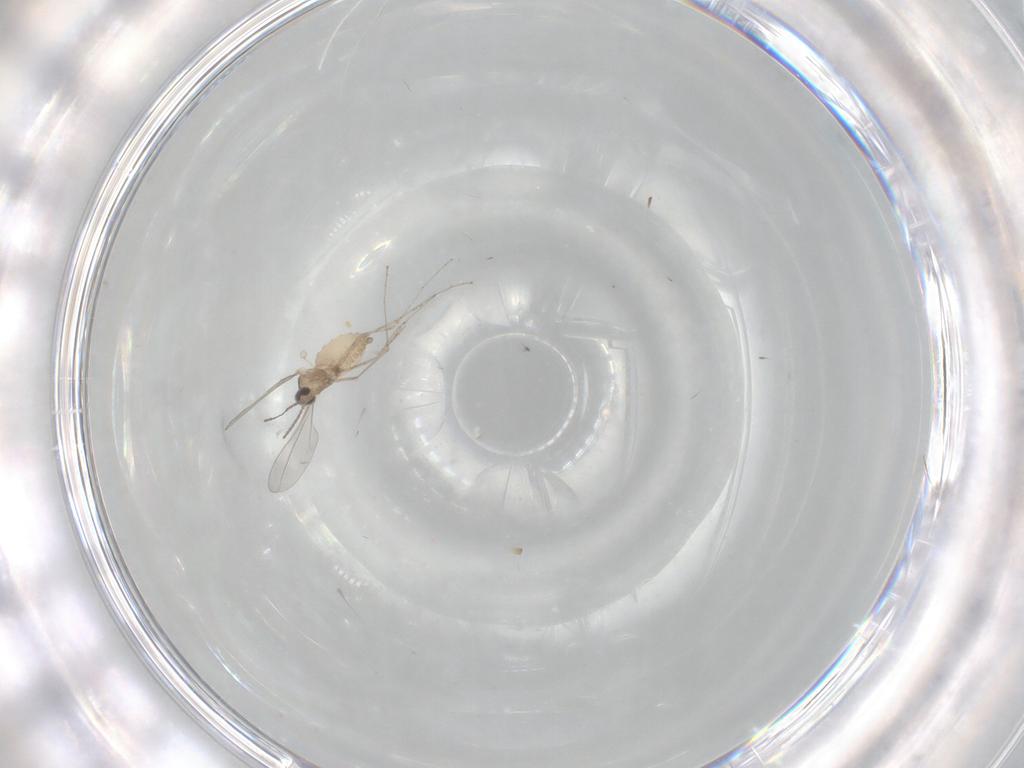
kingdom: Animalia
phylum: Arthropoda
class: Insecta
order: Diptera
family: Cecidomyiidae
